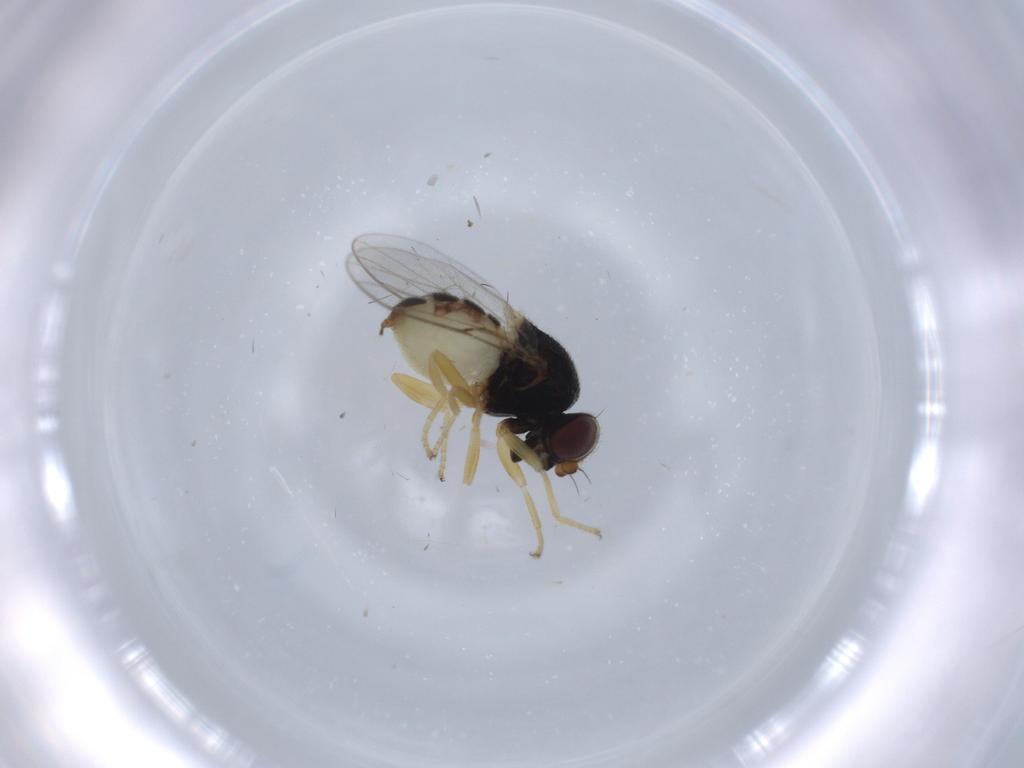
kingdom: Animalia
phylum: Arthropoda
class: Insecta
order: Diptera
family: Chloropidae
